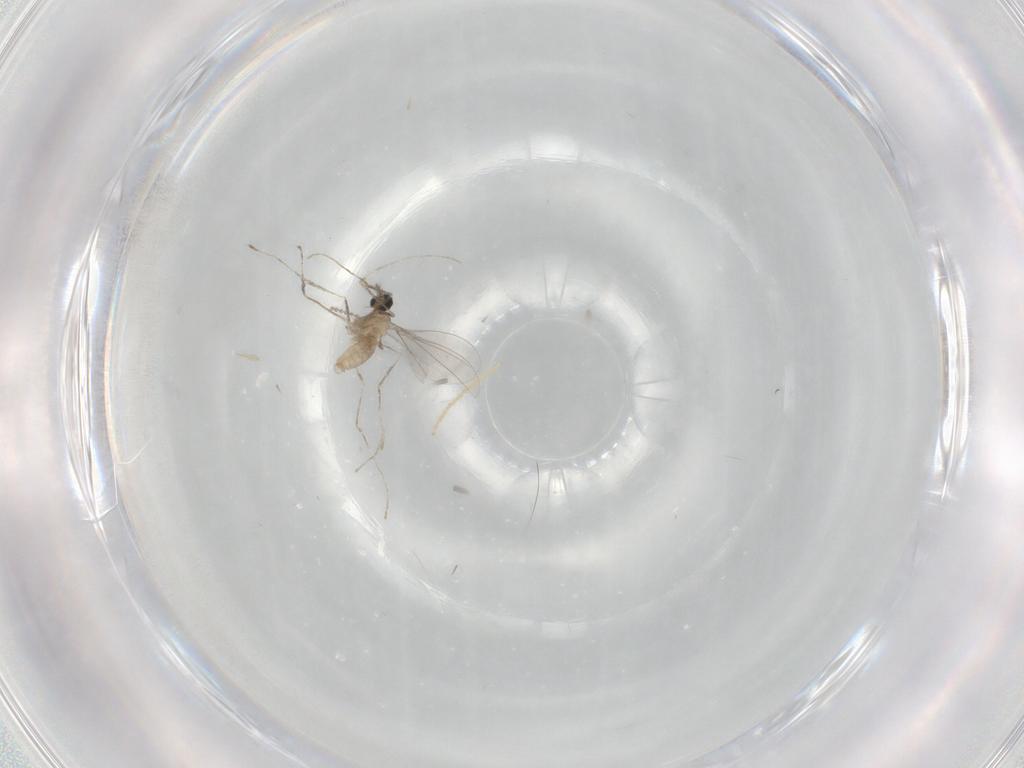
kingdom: Animalia
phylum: Arthropoda
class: Insecta
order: Diptera
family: Chironomidae
